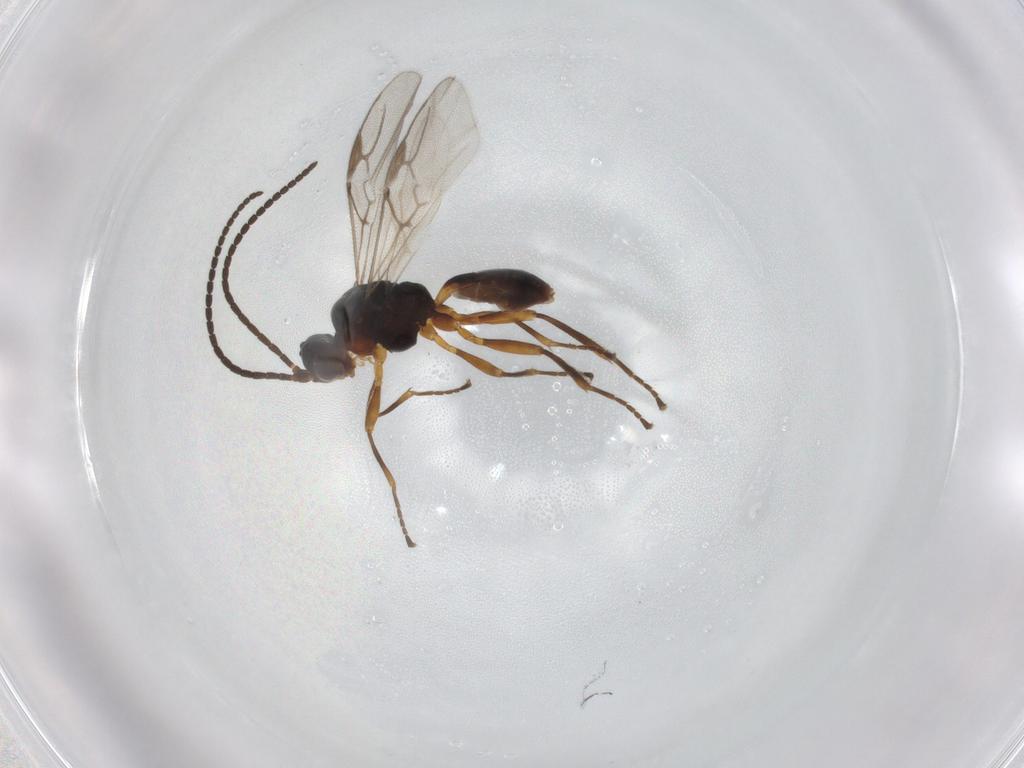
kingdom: Animalia
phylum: Arthropoda
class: Insecta
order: Hymenoptera
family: Braconidae
